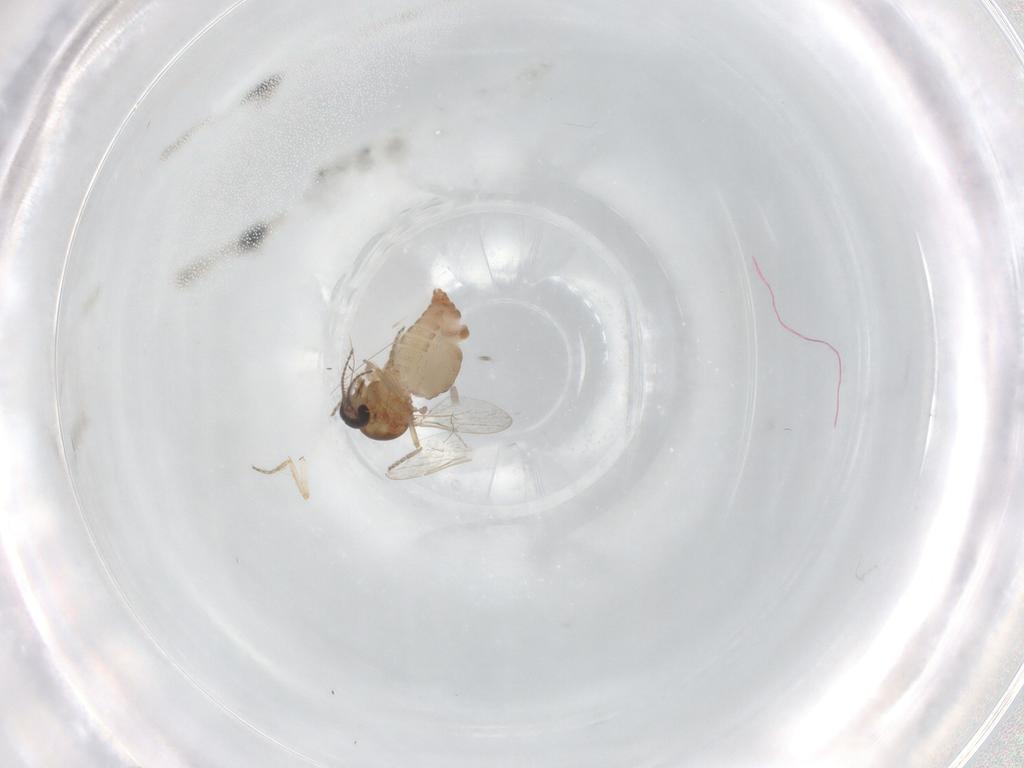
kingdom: Animalia
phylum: Arthropoda
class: Insecta
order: Diptera
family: Ceratopogonidae
